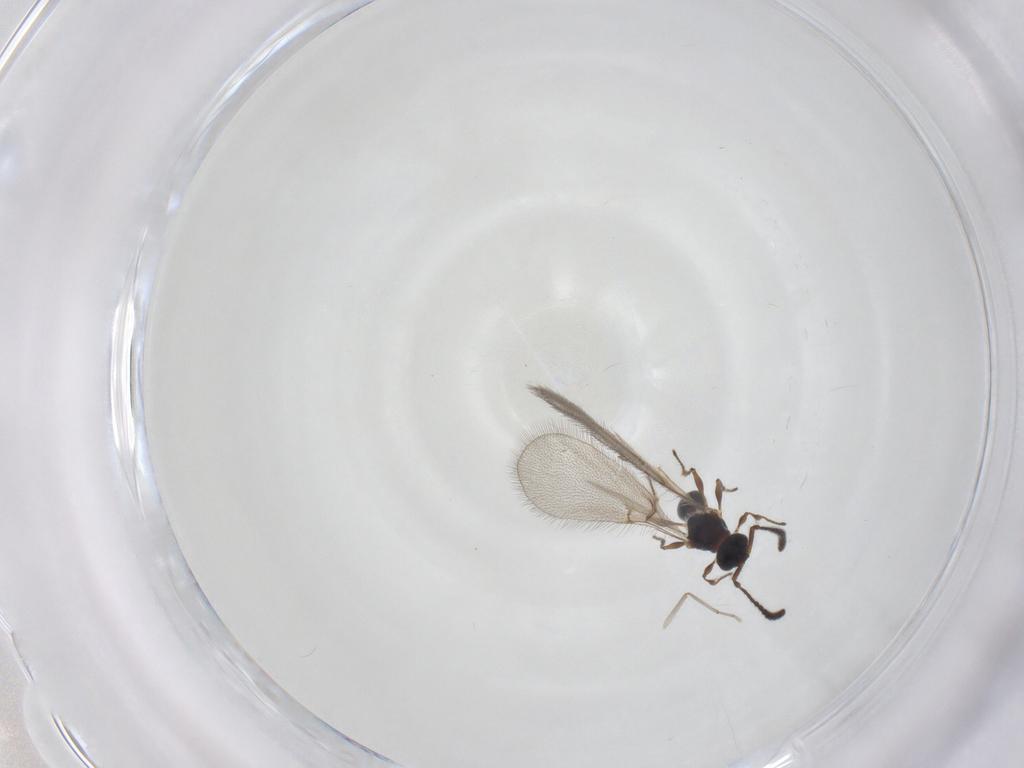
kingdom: Animalia
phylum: Arthropoda
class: Insecta
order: Hymenoptera
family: Diapriidae
